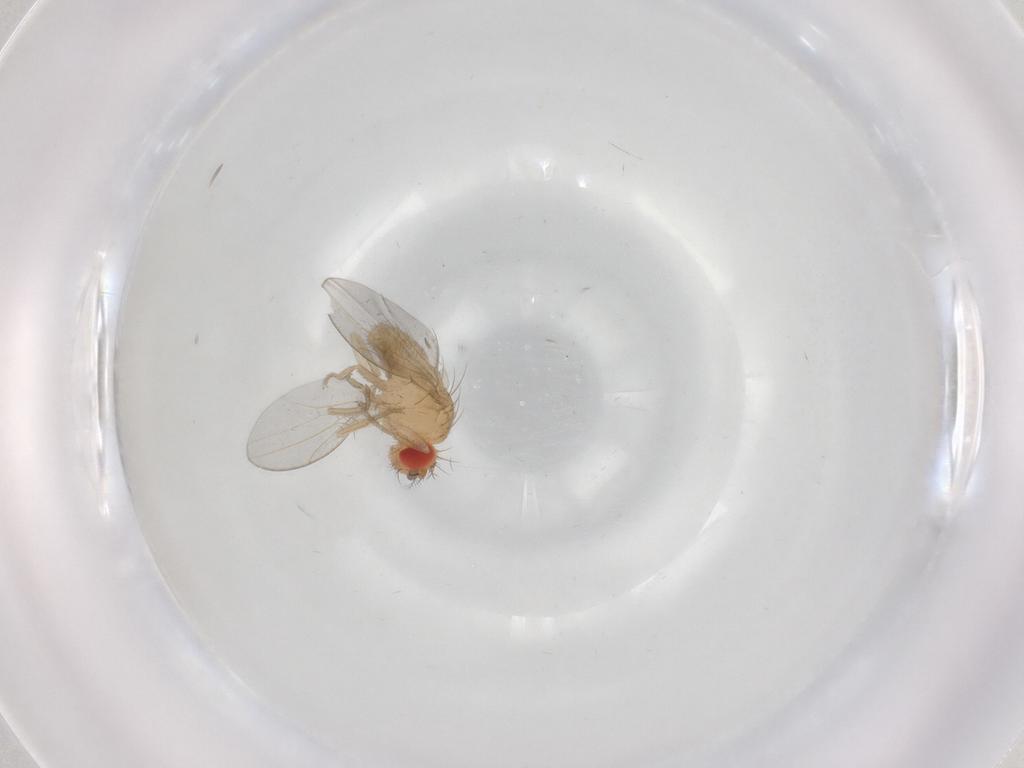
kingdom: Animalia
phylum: Arthropoda
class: Insecta
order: Diptera
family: Drosophilidae
